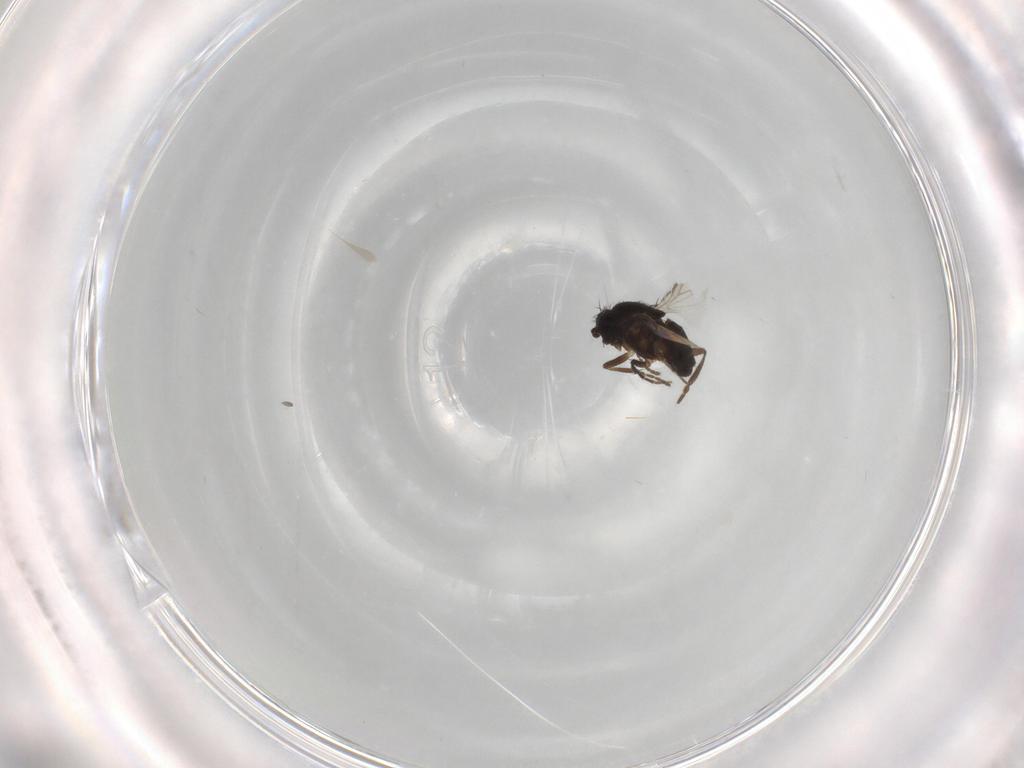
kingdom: Animalia
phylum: Arthropoda
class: Insecta
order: Diptera
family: Sphaeroceridae
